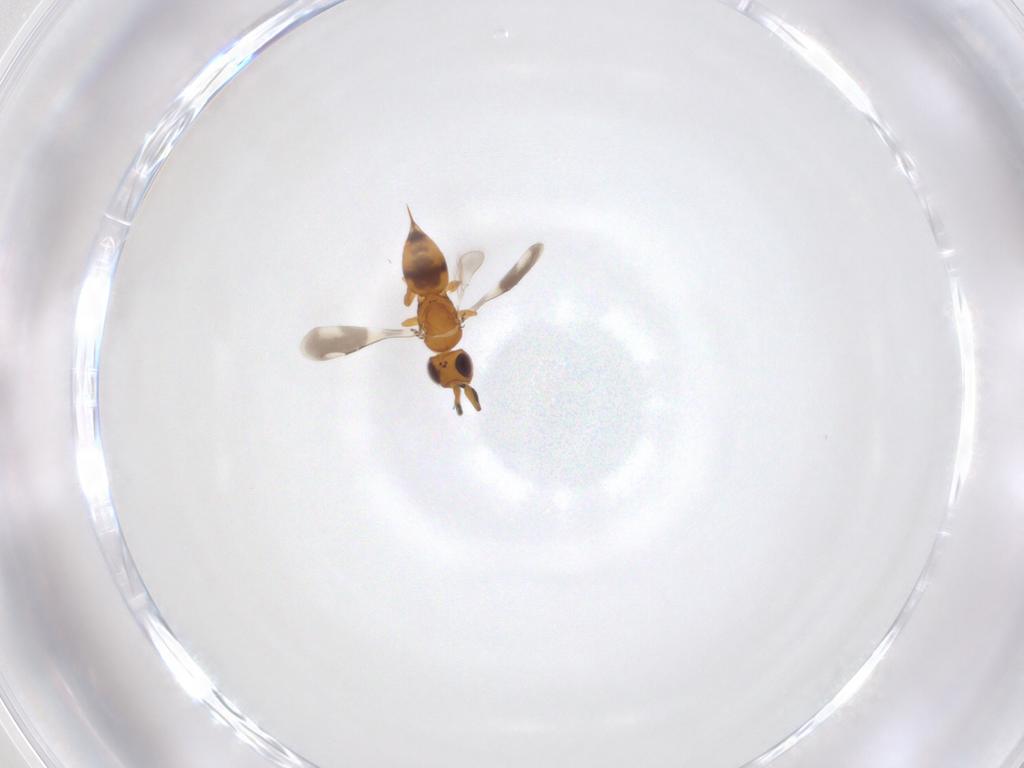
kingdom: Animalia
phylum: Arthropoda
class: Insecta
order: Hymenoptera
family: Ceraphronidae
